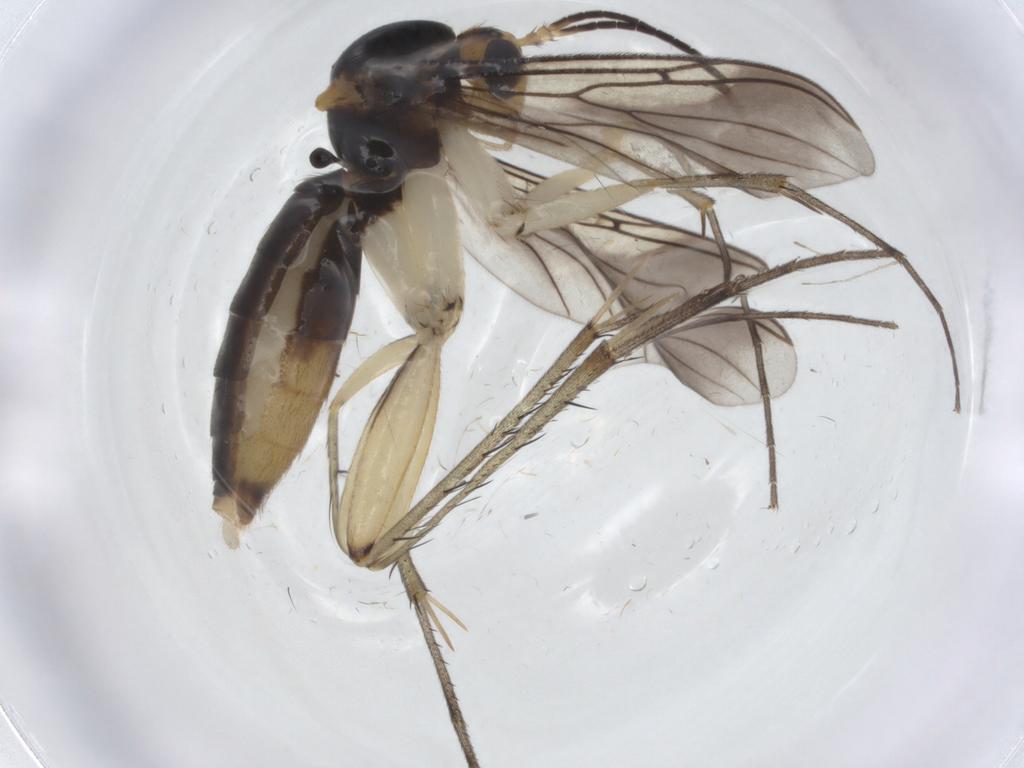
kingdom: Animalia
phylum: Arthropoda
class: Insecta
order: Diptera
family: Mycetophilidae
